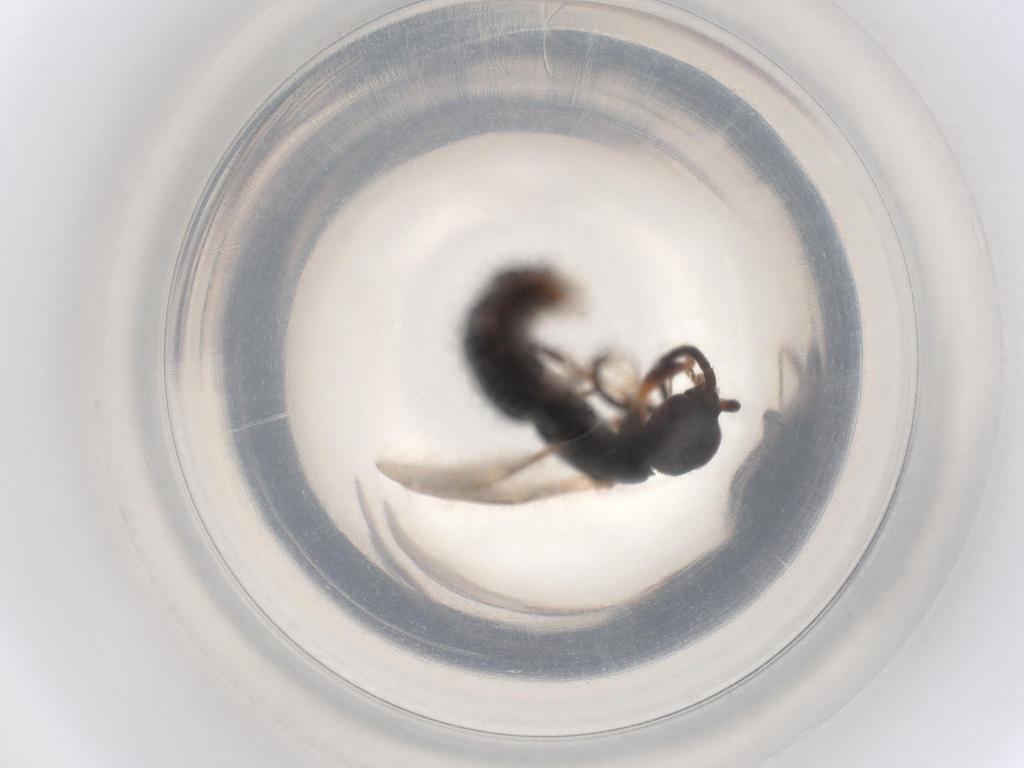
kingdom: Animalia
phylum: Arthropoda
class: Insecta
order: Hymenoptera
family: Bethylidae
